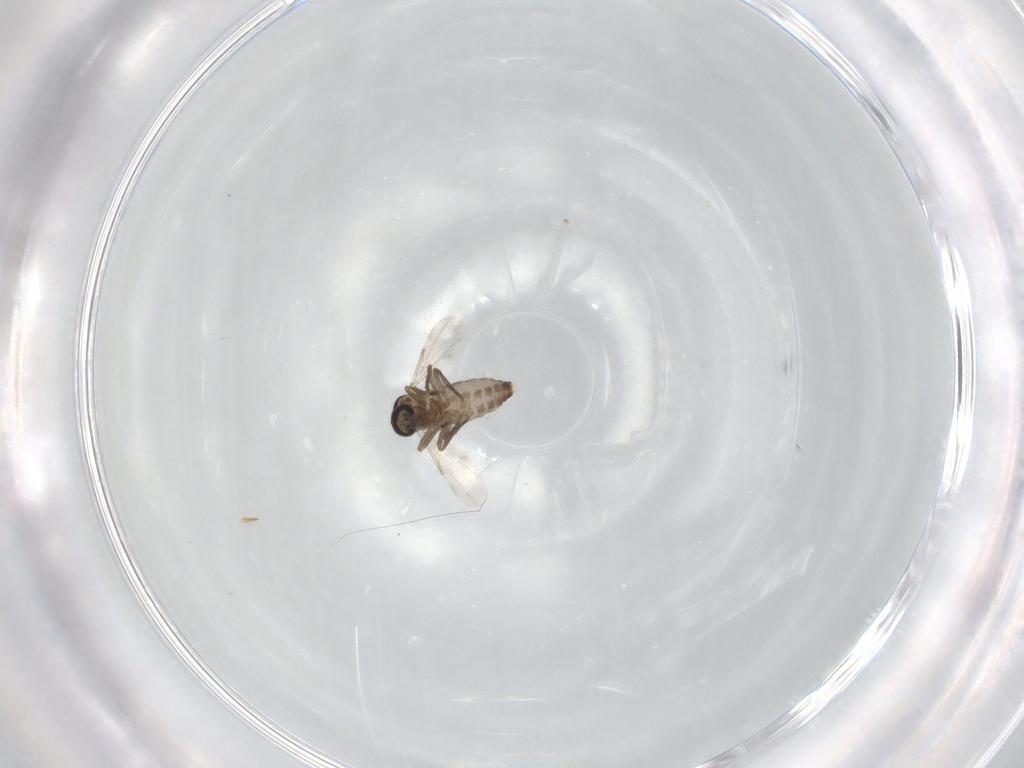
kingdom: Animalia
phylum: Arthropoda
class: Insecta
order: Diptera
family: Ceratopogonidae
